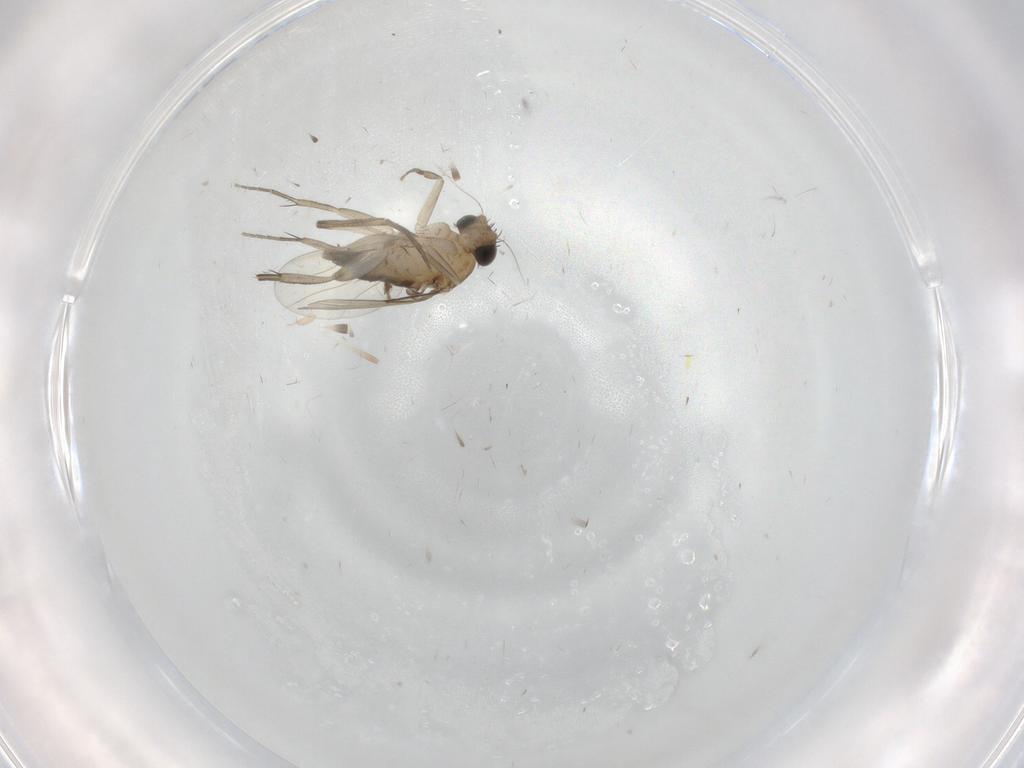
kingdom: Animalia
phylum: Arthropoda
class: Insecta
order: Diptera
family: Phoridae
